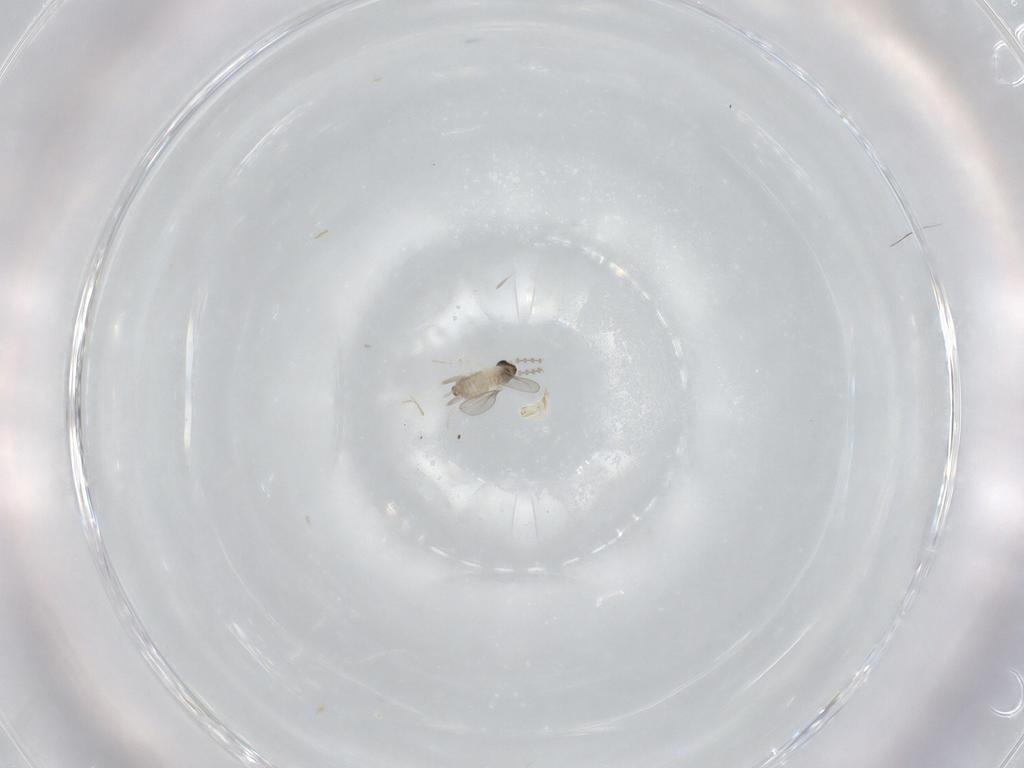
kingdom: Animalia
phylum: Arthropoda
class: Insecta
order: Diptera
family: Cecidomyiidae
